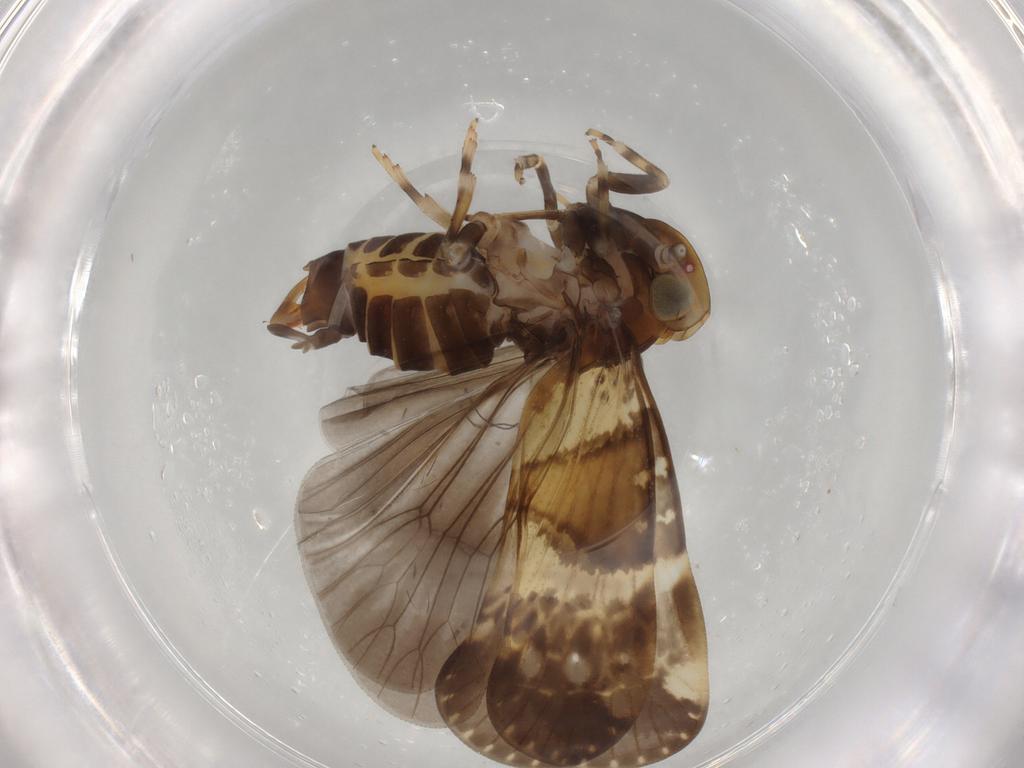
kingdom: Animalia
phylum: Arthropoda
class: Insecta
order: Hemiptera
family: Cixiidae
